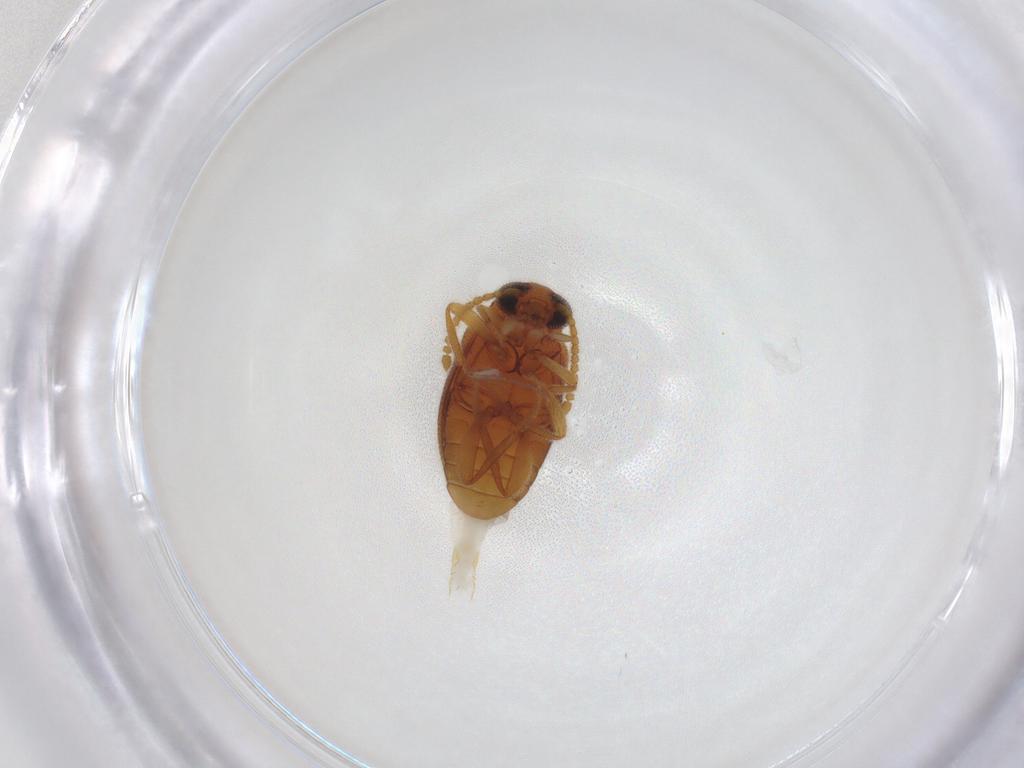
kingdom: Animalia
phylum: Arthropoda
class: Insecta
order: Coleoptera
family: Aderidae
